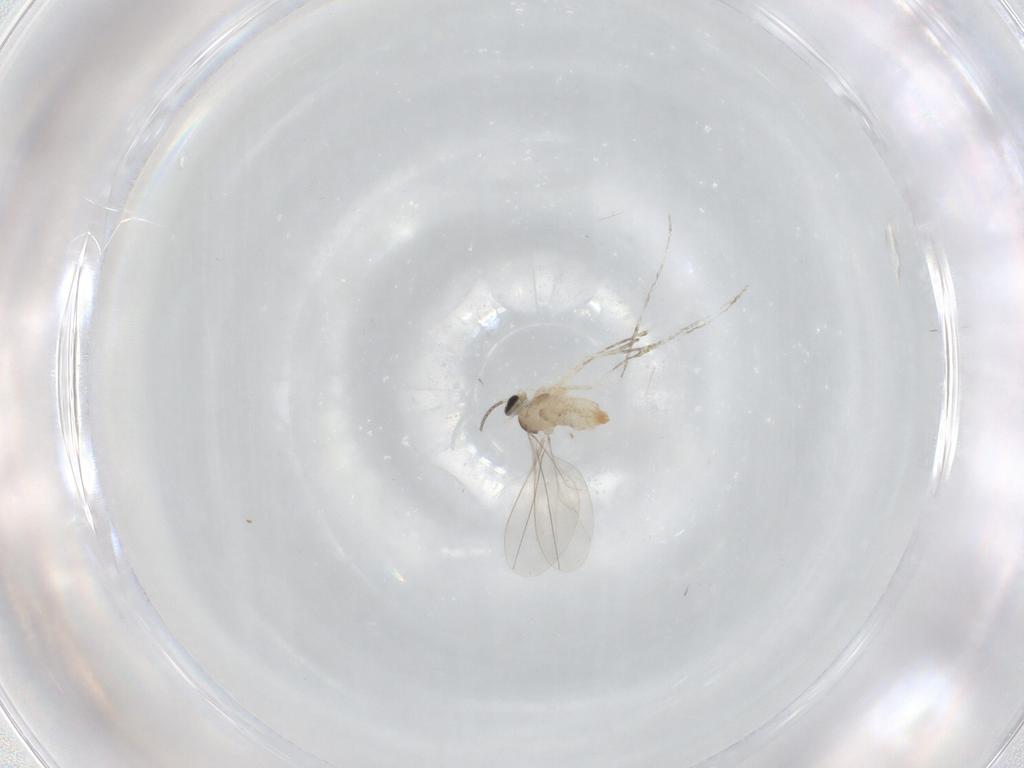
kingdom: Animalia
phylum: Arthropoda
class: Insecta
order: Diptera
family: Cecidomyiidae
